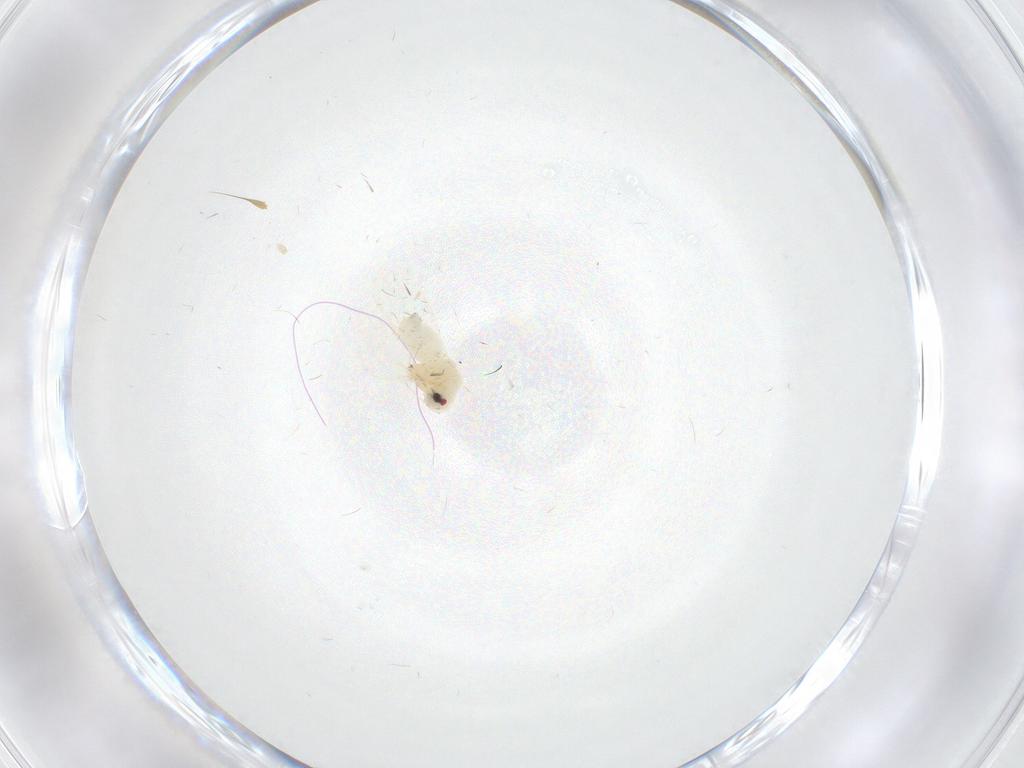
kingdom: Animalia
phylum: Arthropoda
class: Insecta
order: Hemiptera
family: Aleyrodidae
